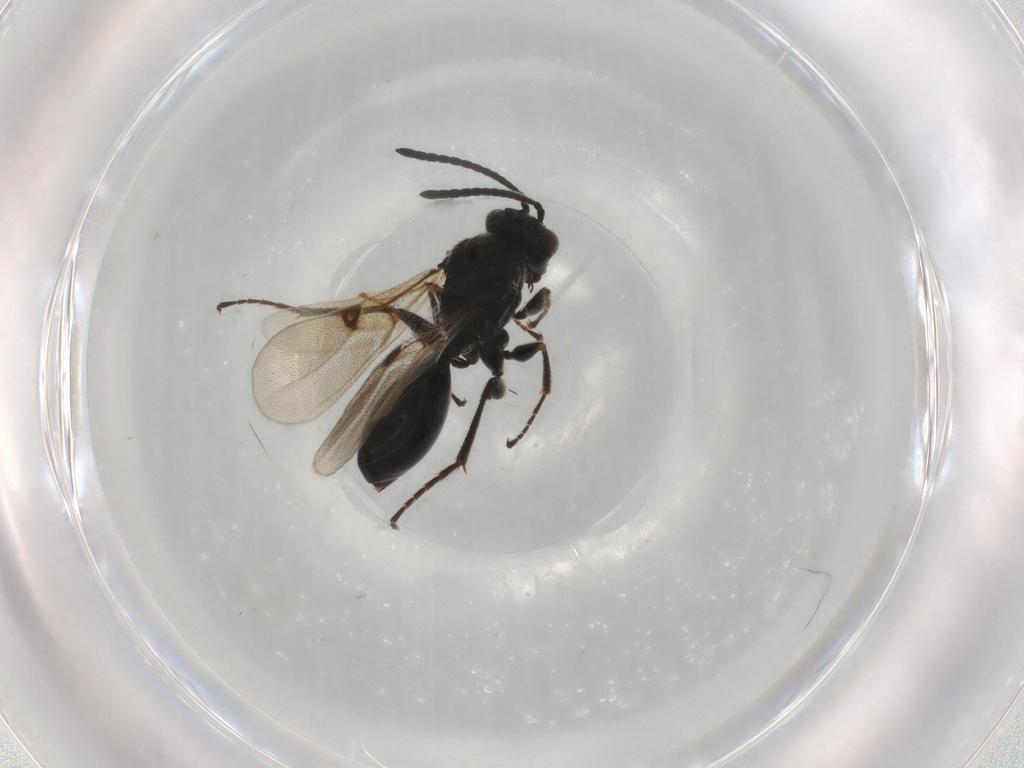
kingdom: Animalia
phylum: Arthropoda
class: Insecta
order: Hymenoptera
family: Figitidae
